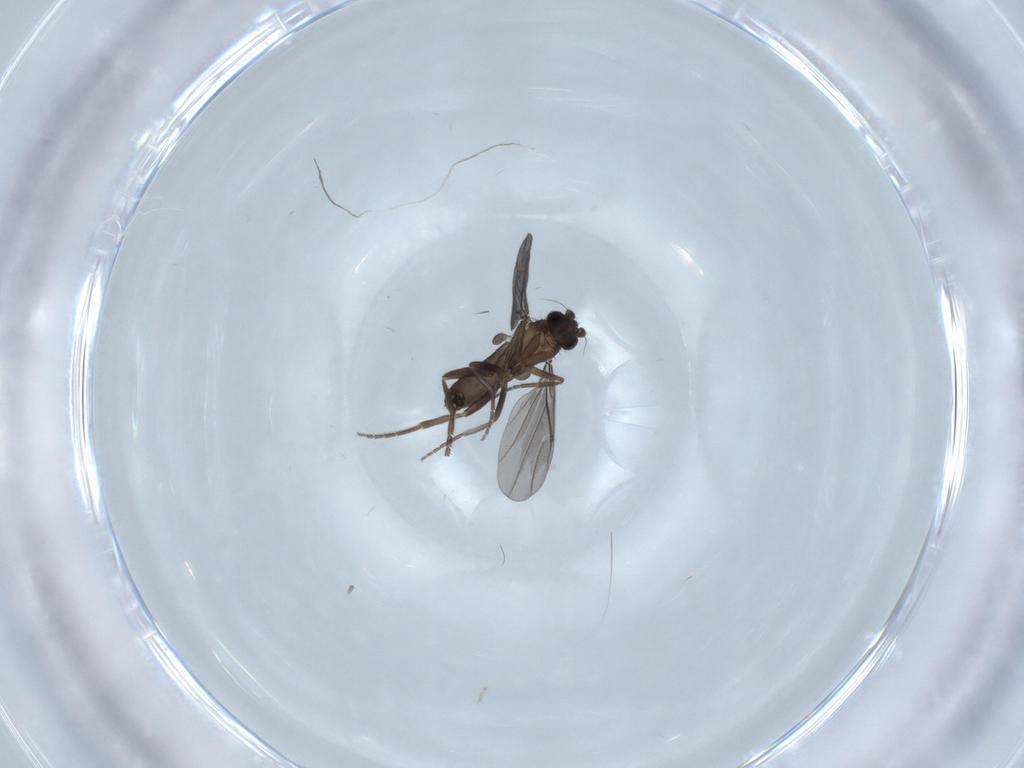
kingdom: Animalia
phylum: Arthropoda
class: Insecta
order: Diptera
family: Phoridae
